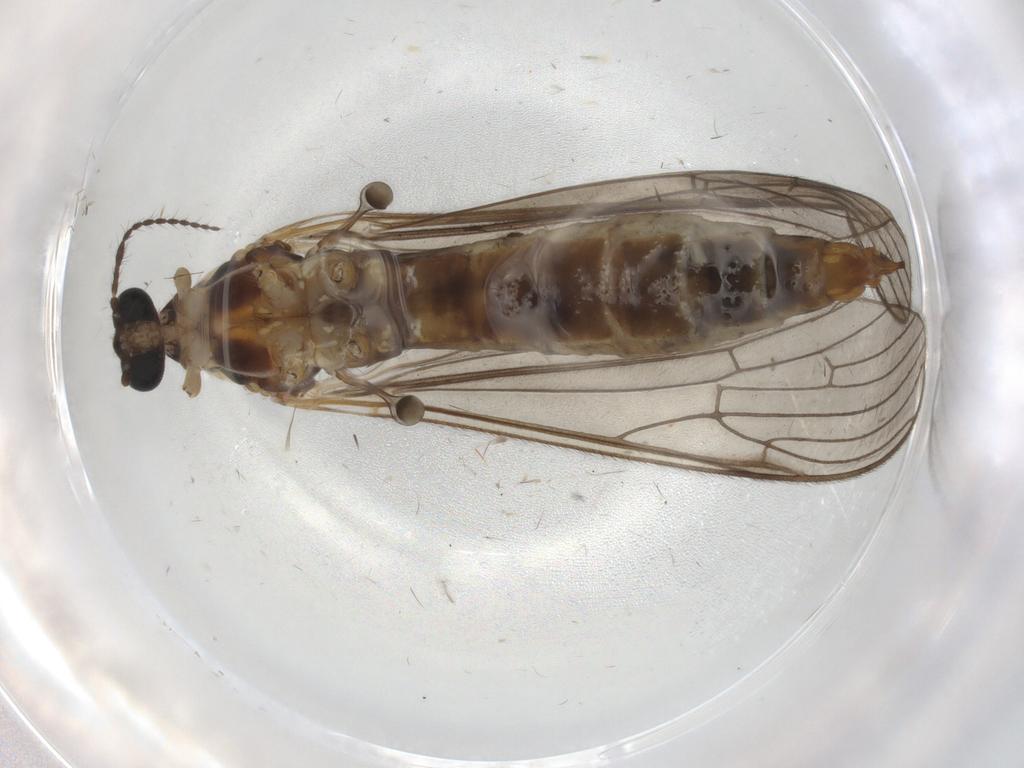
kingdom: Animalia
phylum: Arthropoda
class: Insecta
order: Diptera
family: Limoniidae
